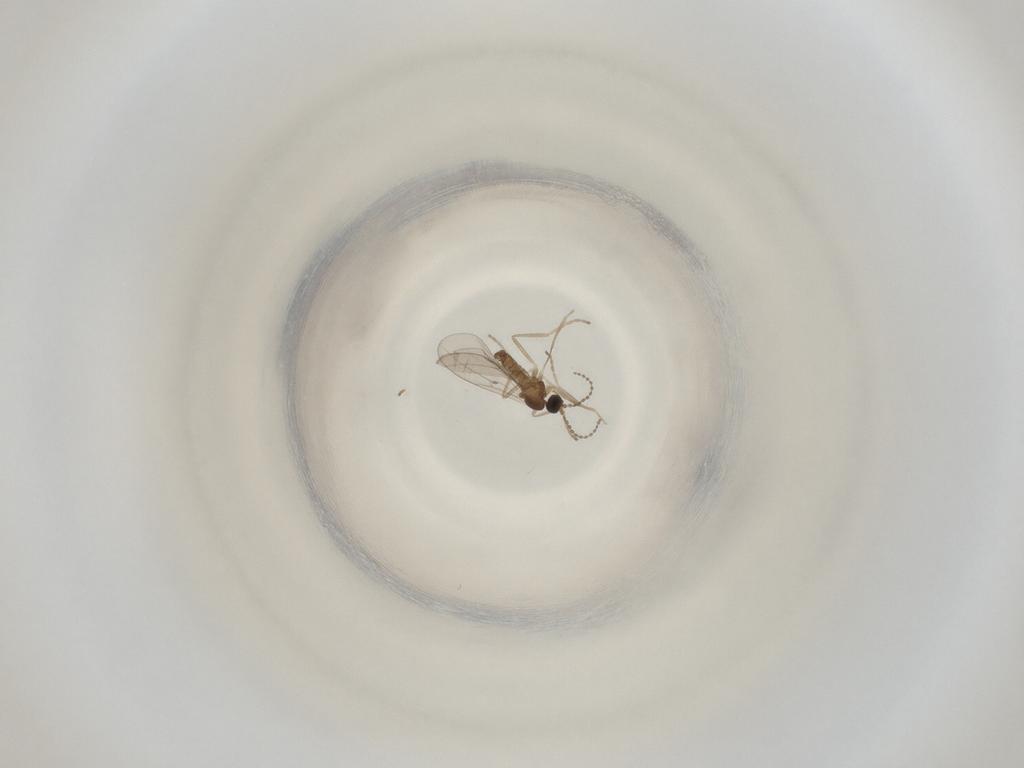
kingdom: Animalia
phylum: Arthropoda
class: Insecta
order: Diptera
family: Cecidomyiidae
